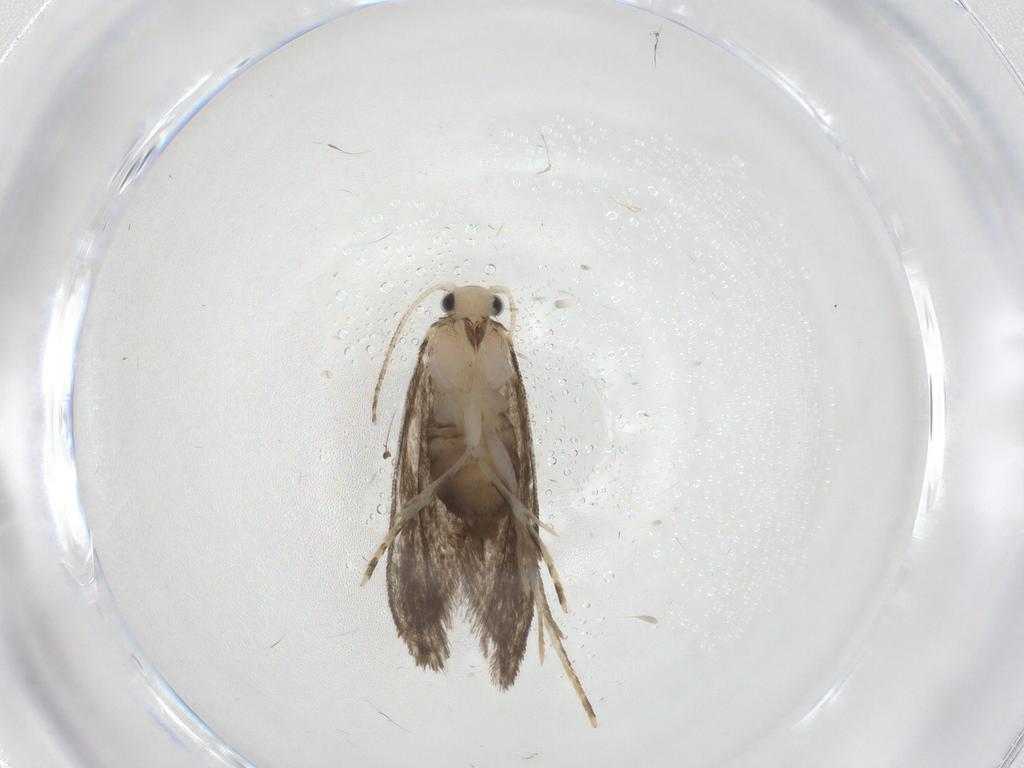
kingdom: Animalia
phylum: Arthropoda
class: Insecta
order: Lepidoptera
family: Tineidae
